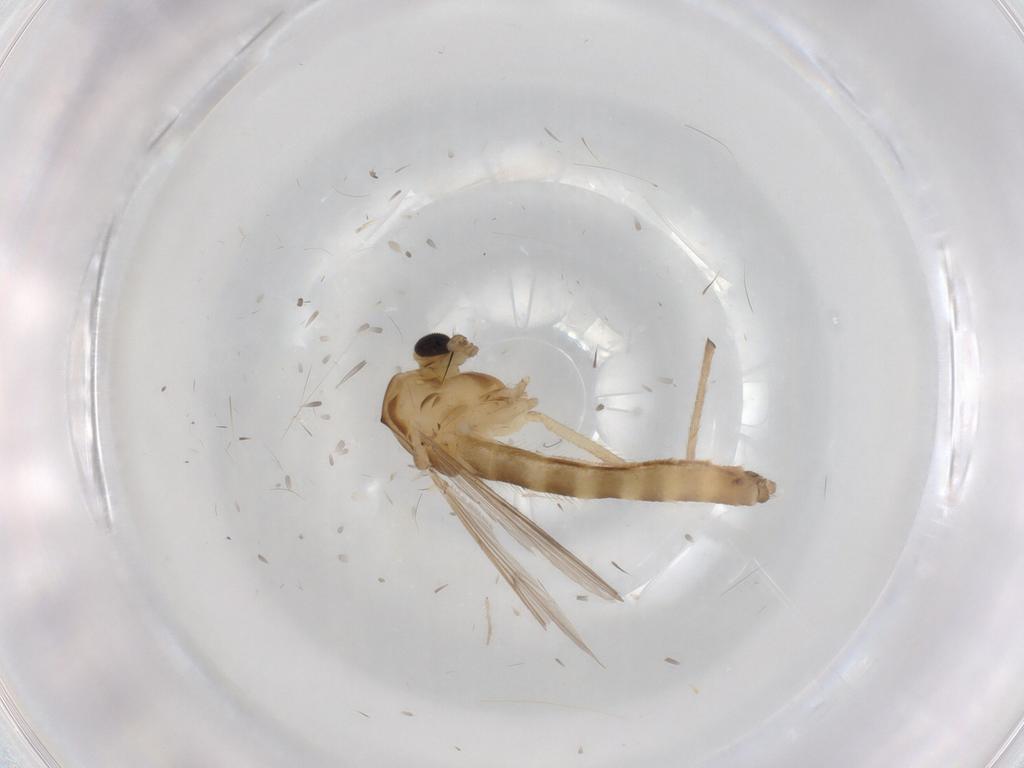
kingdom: Animalia
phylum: Arthropoda
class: Insecta
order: Diptera
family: Chironomidae
